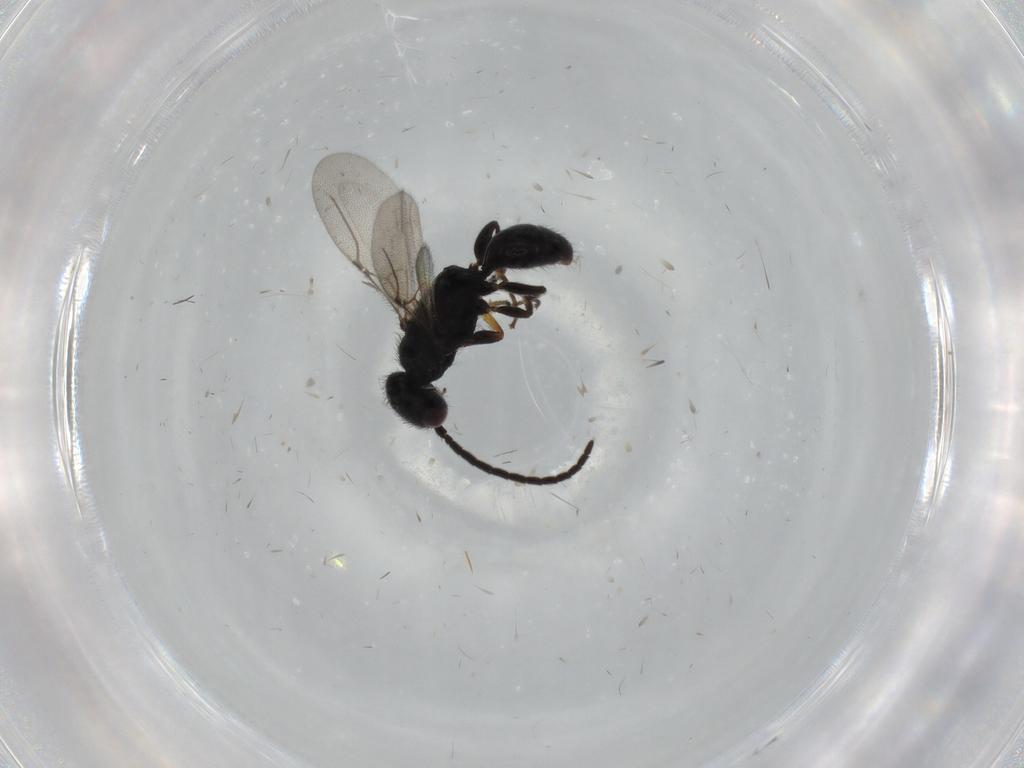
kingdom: Animalia
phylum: Arthropoda
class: Insecta
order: Hymenoptera
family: Bethylidae
